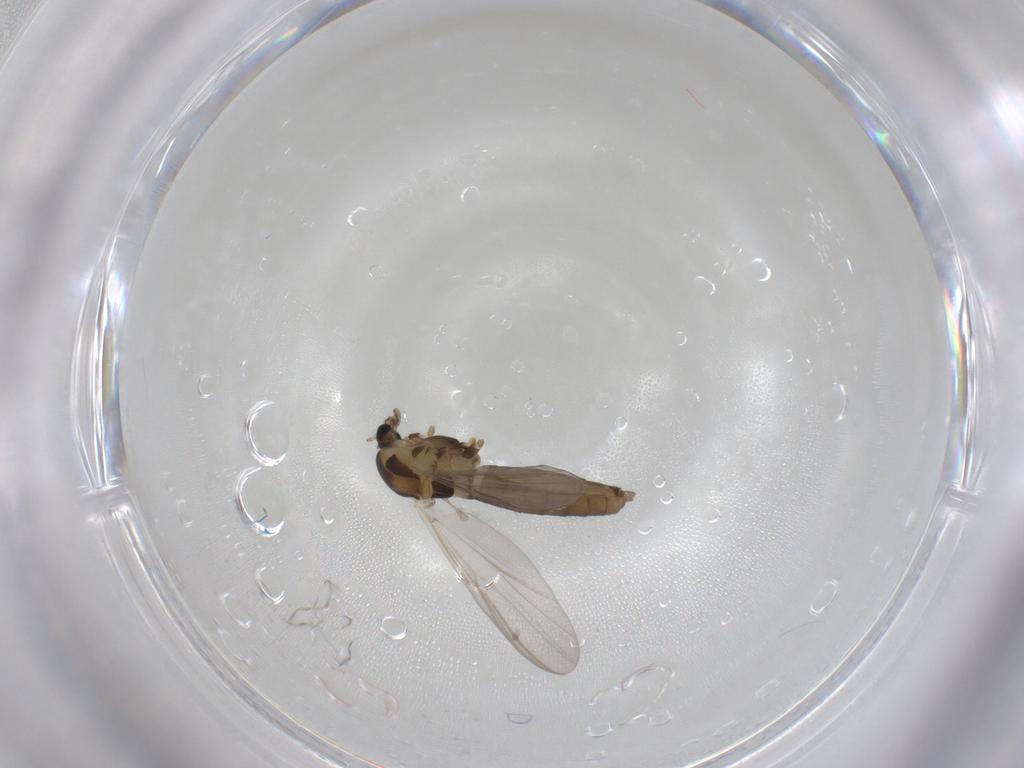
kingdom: Animalia
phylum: Arthropoda
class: Insecta
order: Diptera
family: Chironomidae
